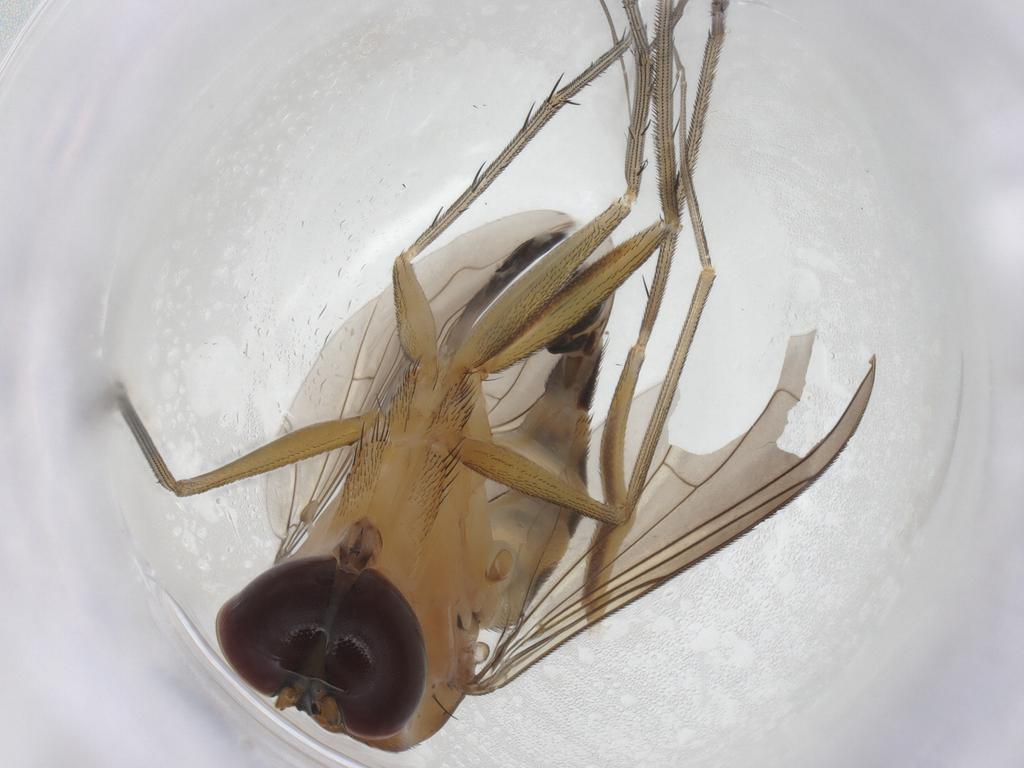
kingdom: Animalia
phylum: Arthropoda
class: Insecta
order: Diptera
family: Dolichopodidae
